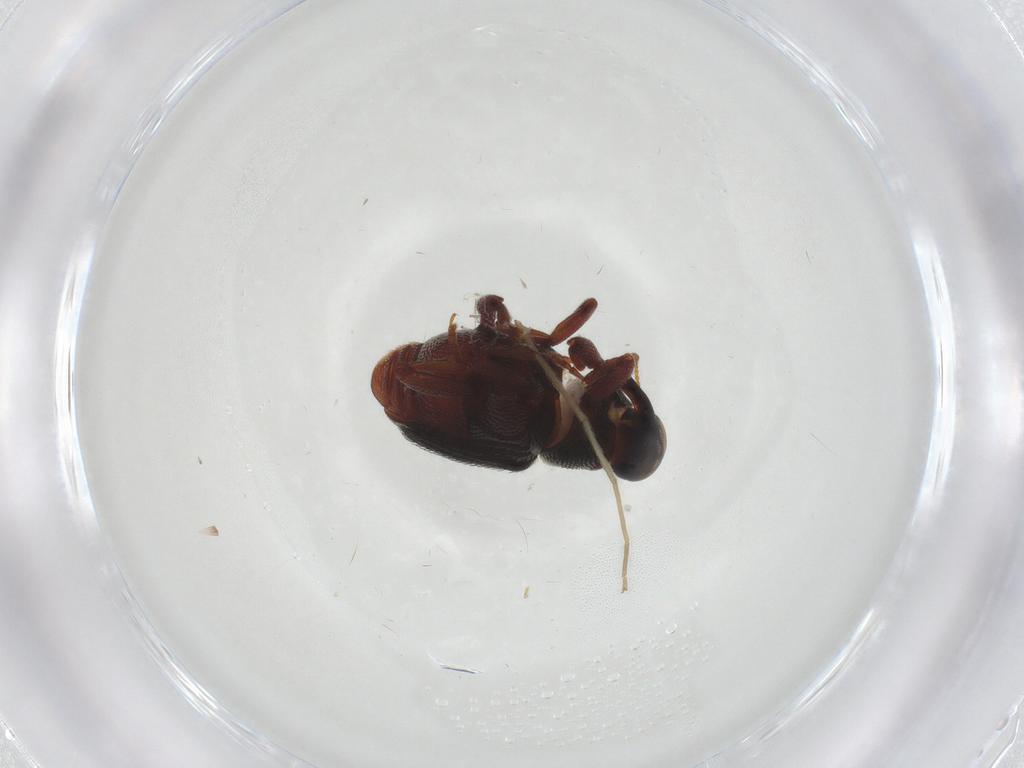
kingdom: Animalia
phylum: Arthropoda
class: Insecta
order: Coleoptera
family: Curculionidae
